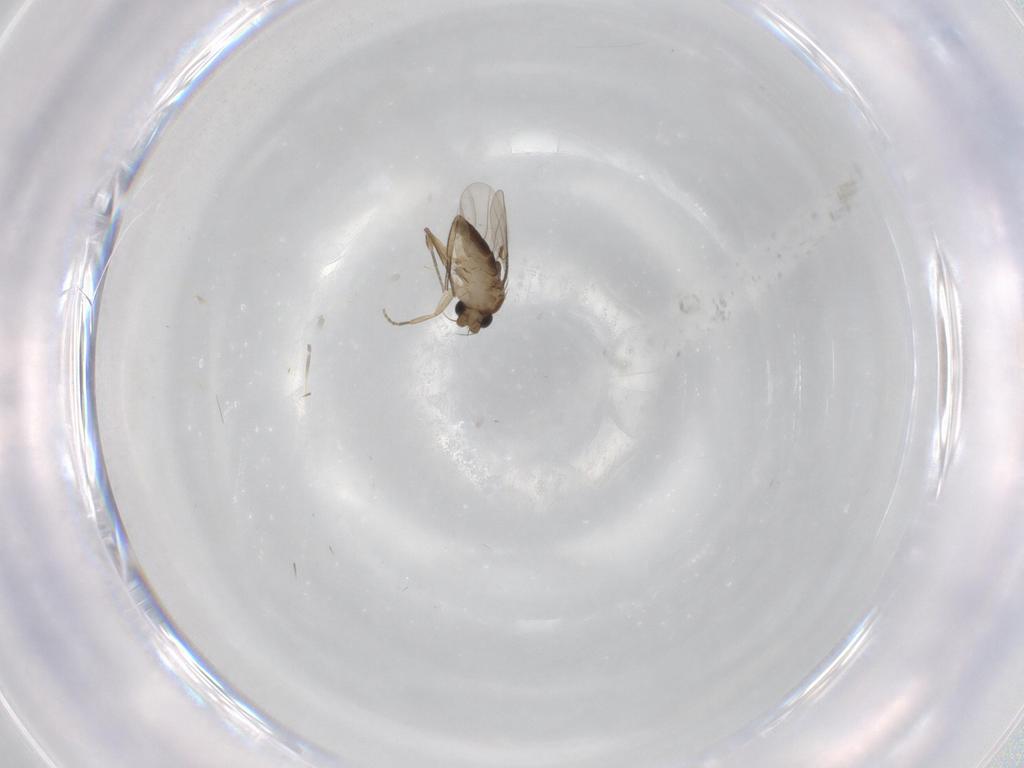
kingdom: Animalia
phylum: Arthropoda
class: Insecta
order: Diptera
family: Phoridae
